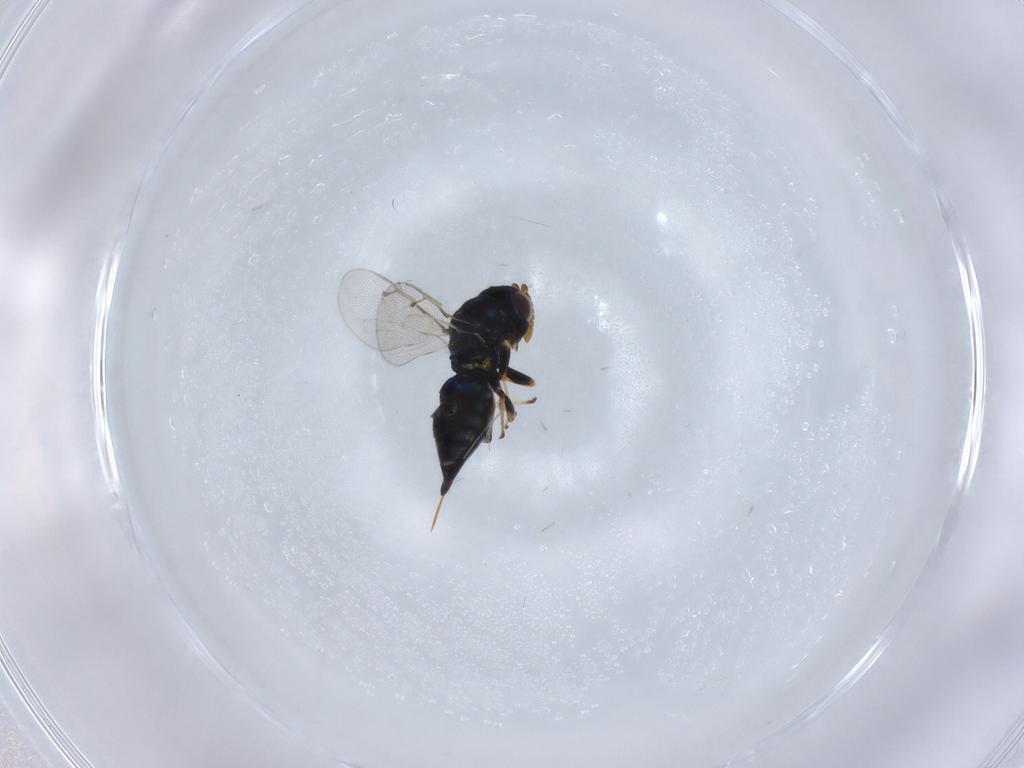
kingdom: Animalia
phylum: Arthropoda
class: Insecta
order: Hymenoptera
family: Pteromalidae
